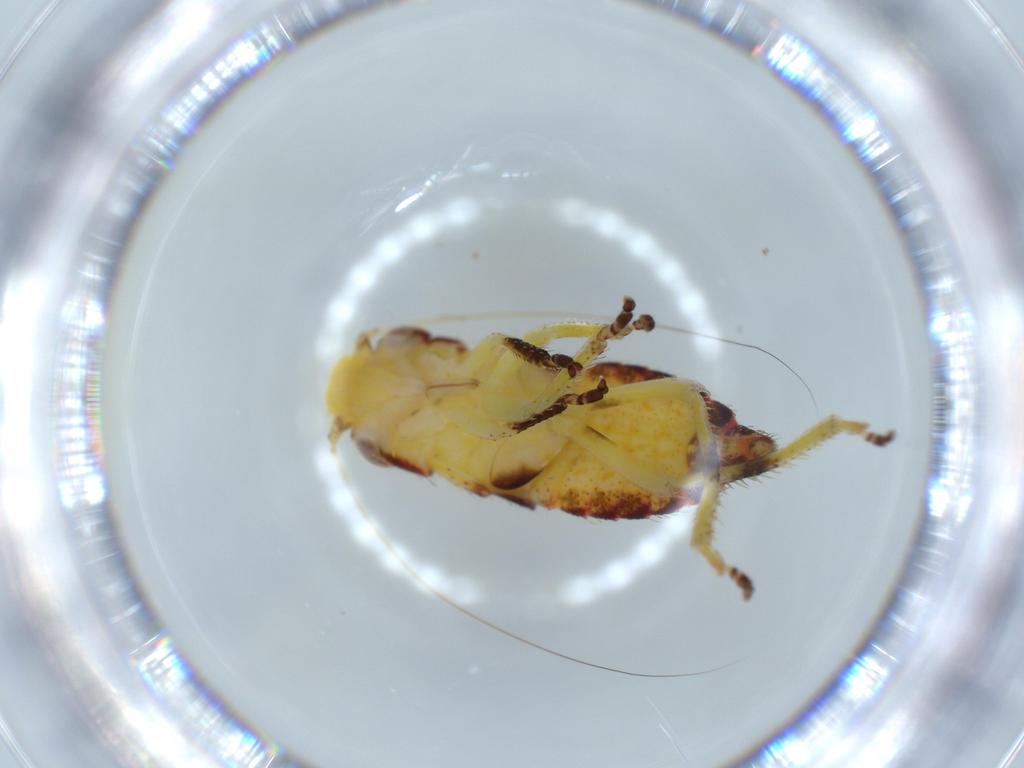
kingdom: Animalia
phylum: Arthropoda
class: Insecta
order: Hemiptera
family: Cicadellidae
